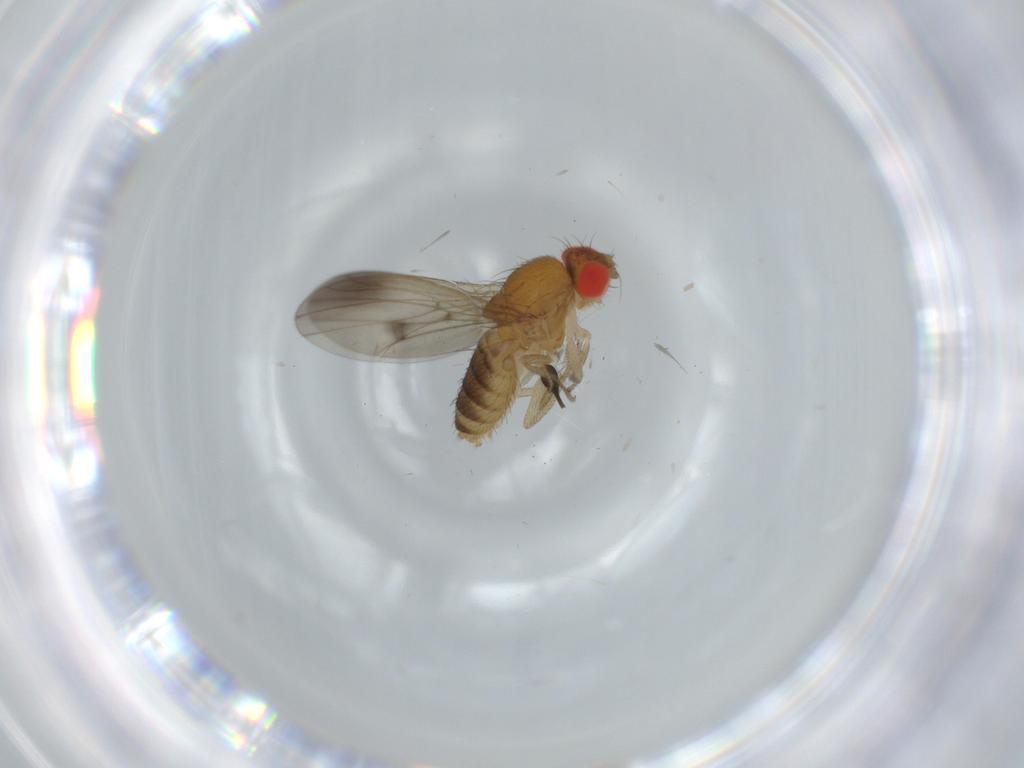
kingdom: Animalia
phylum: Arthropoda
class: Insecta
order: Diptera
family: Drosophilidae
